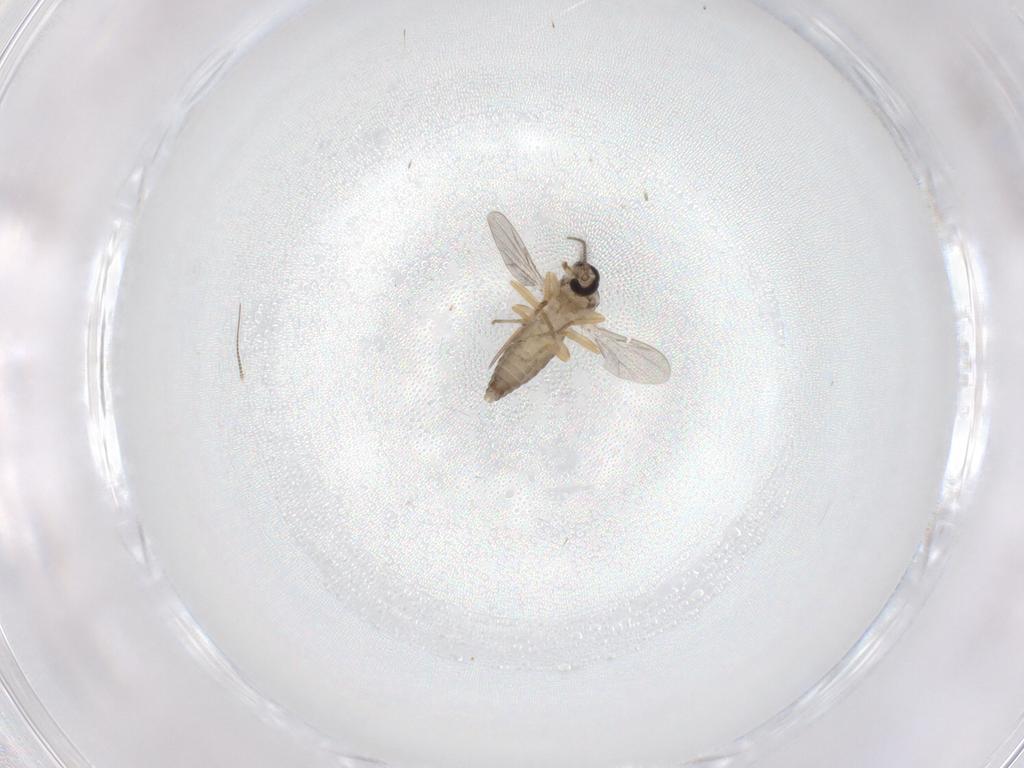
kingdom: Animalia
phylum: Arthropoda
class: Insecta
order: Diptera
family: Ceratopogonidae
